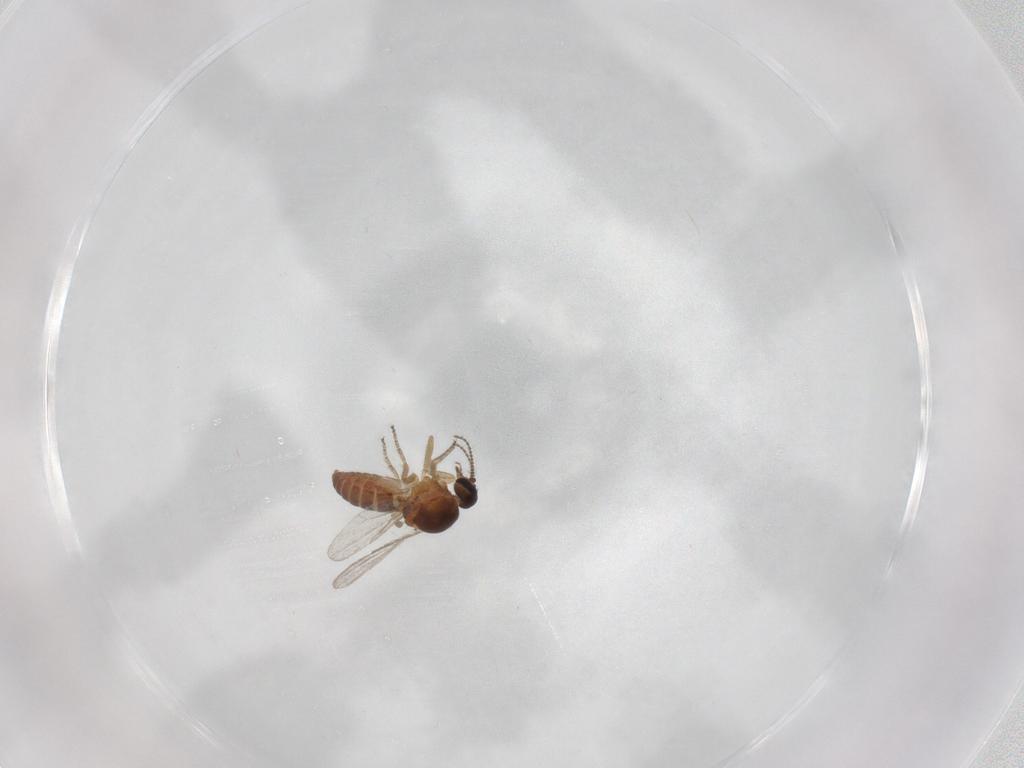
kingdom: Animalia
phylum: Arthropoda
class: Insecta
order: Diptera
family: Ceratopogonidae
